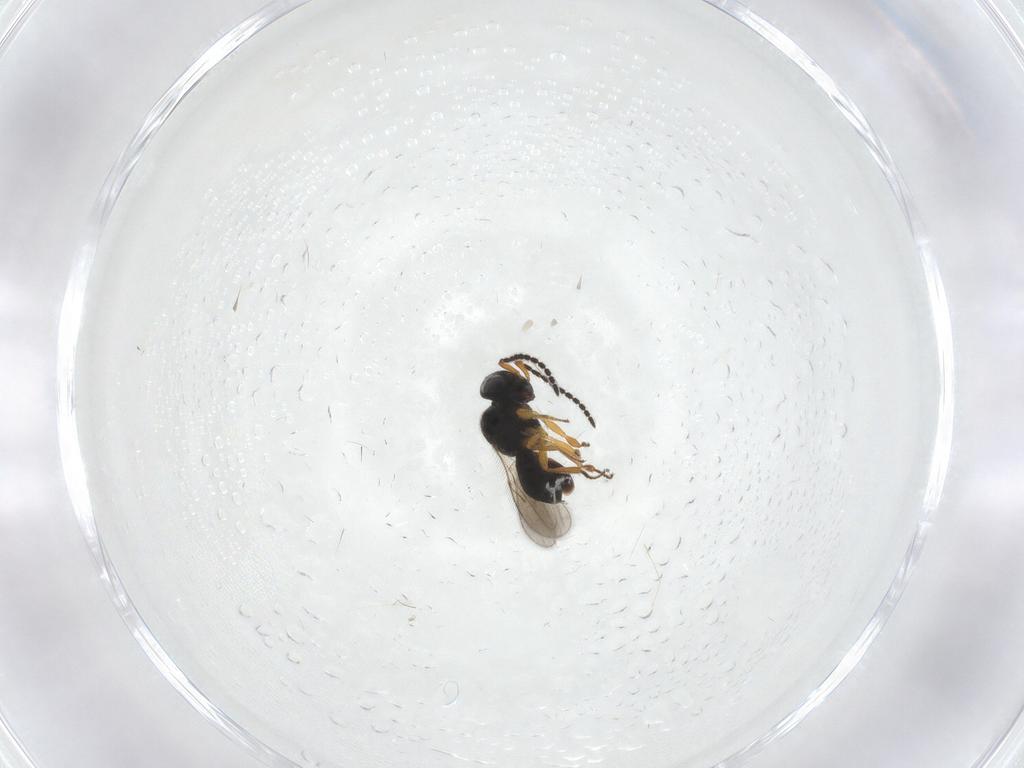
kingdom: Animalia
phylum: Arthropoda
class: Insecta
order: Hymenoptera
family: Scelionidae
